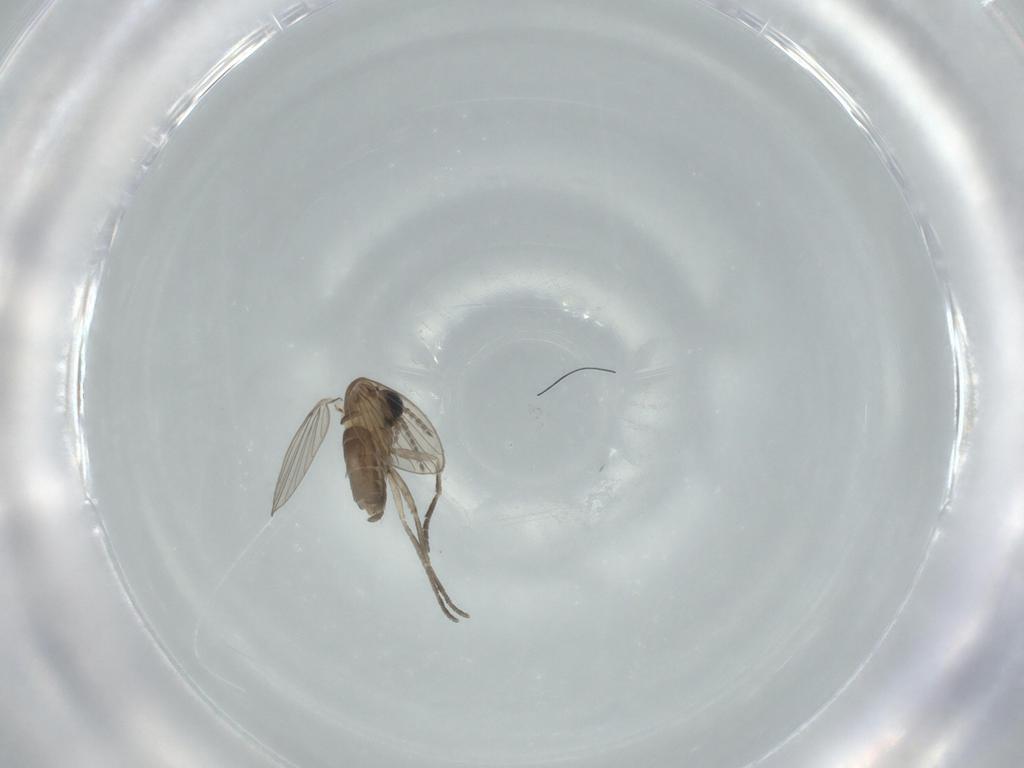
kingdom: Animalia
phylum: Arthropoda
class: Insecta
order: Diptera
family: Psychodidae
